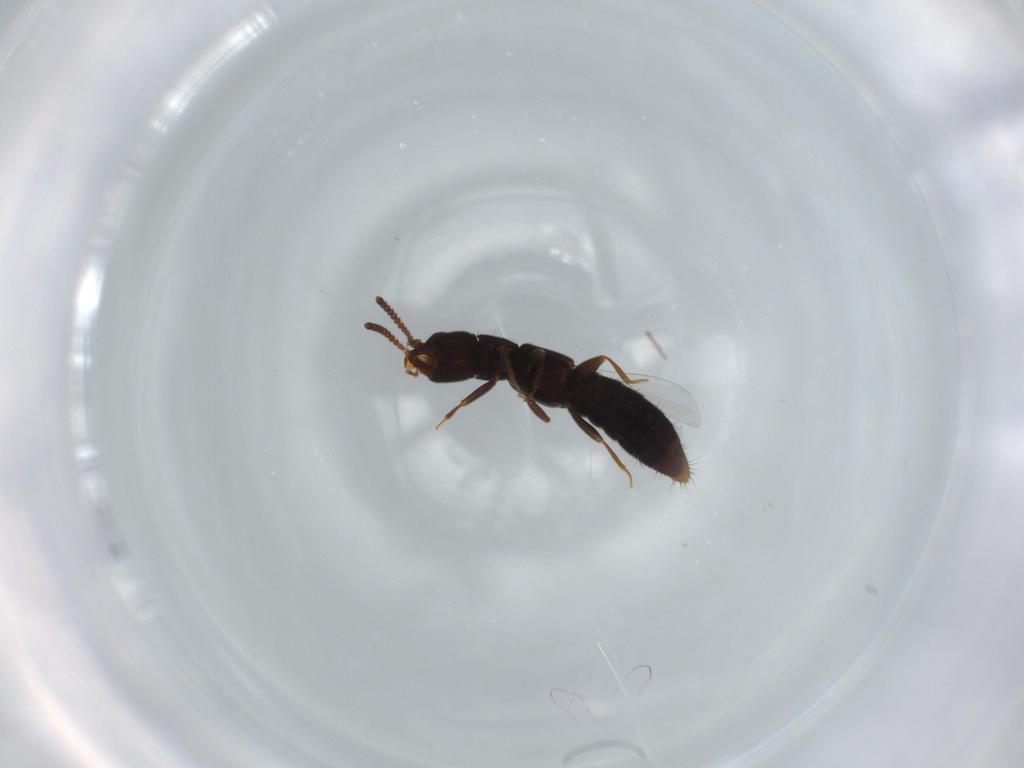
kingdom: Animalia
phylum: Arthropoda
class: Insecta
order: Coleoptera
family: Staphylinidae
